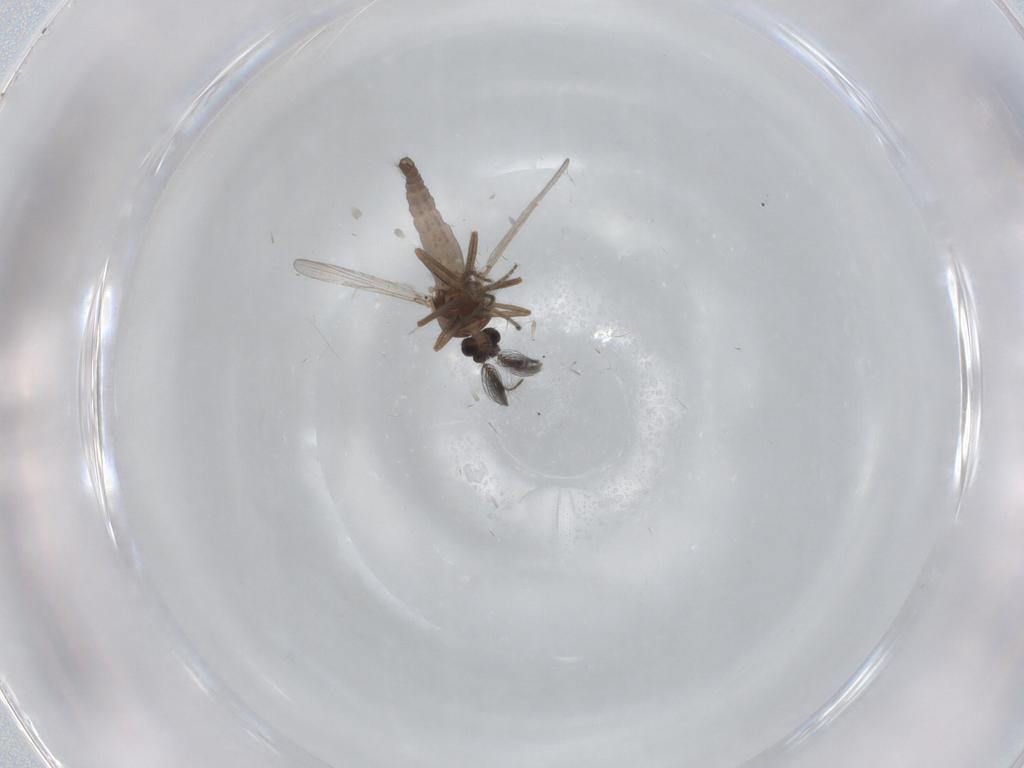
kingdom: Animalia
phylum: Arthropoda
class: Insecta
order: Diptera
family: Ceratopogonidae
